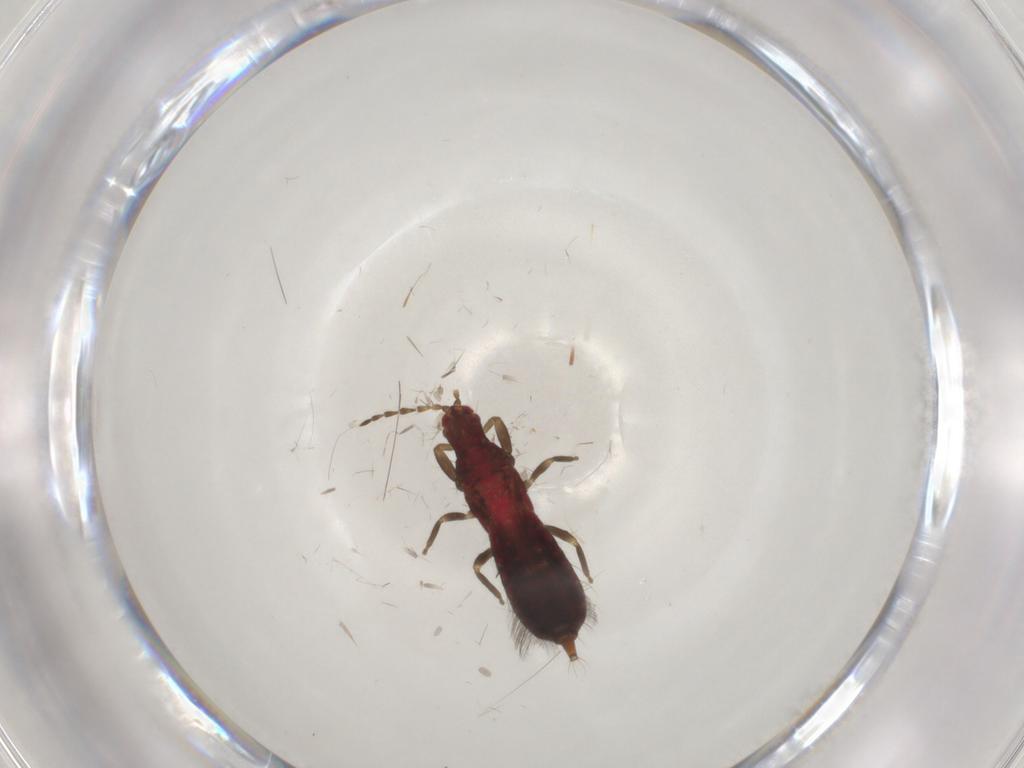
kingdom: Animalia
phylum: Arthropoda
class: Insecta
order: Thysanoptera
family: Phlaeothripidae
